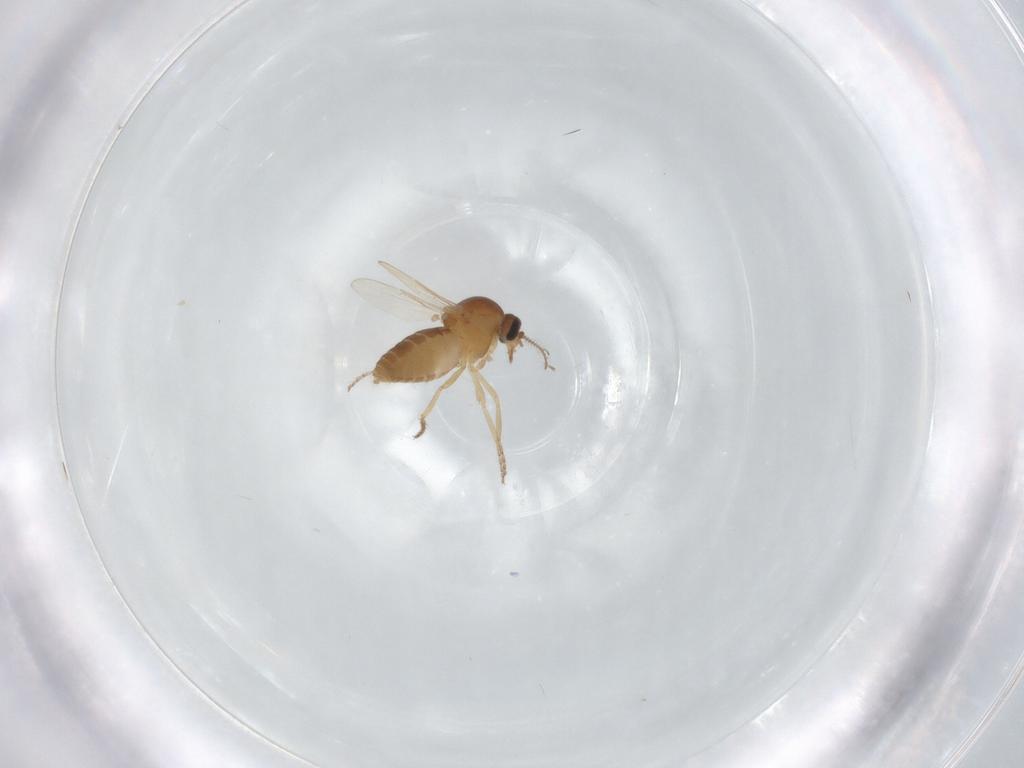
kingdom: Animalia
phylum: Arthropoda
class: Insecta
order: Diptera
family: Ceratopogonidae
